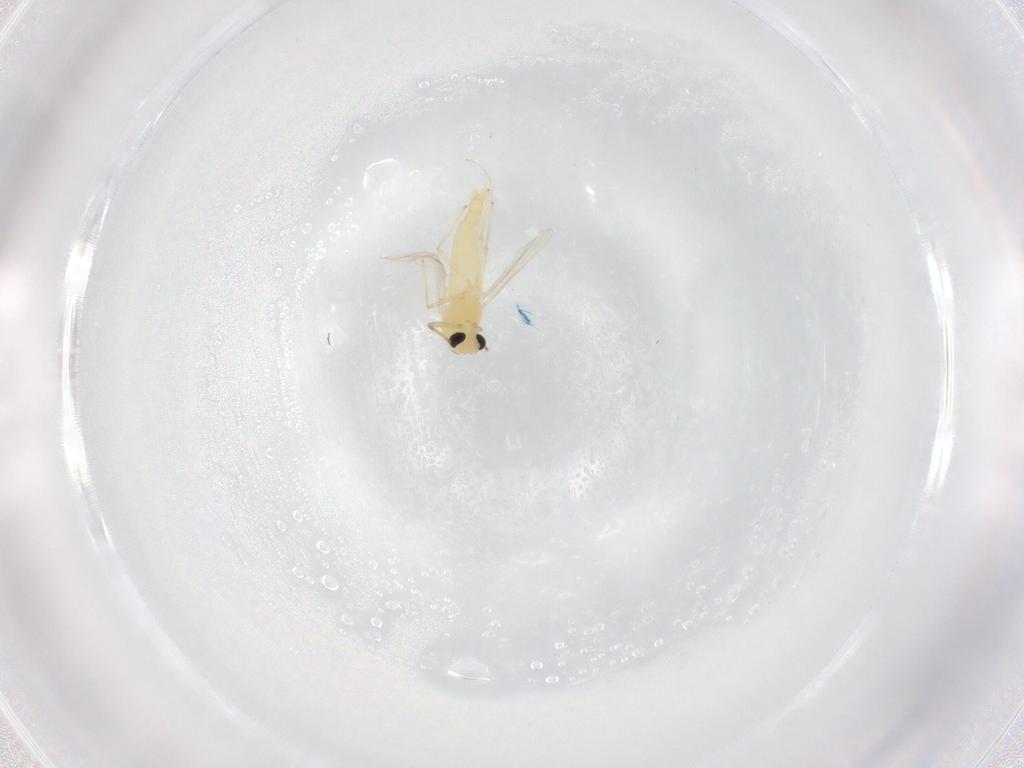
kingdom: Animalia
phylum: Arthropoda
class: Insecta
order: Diptera
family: Chironomidae
